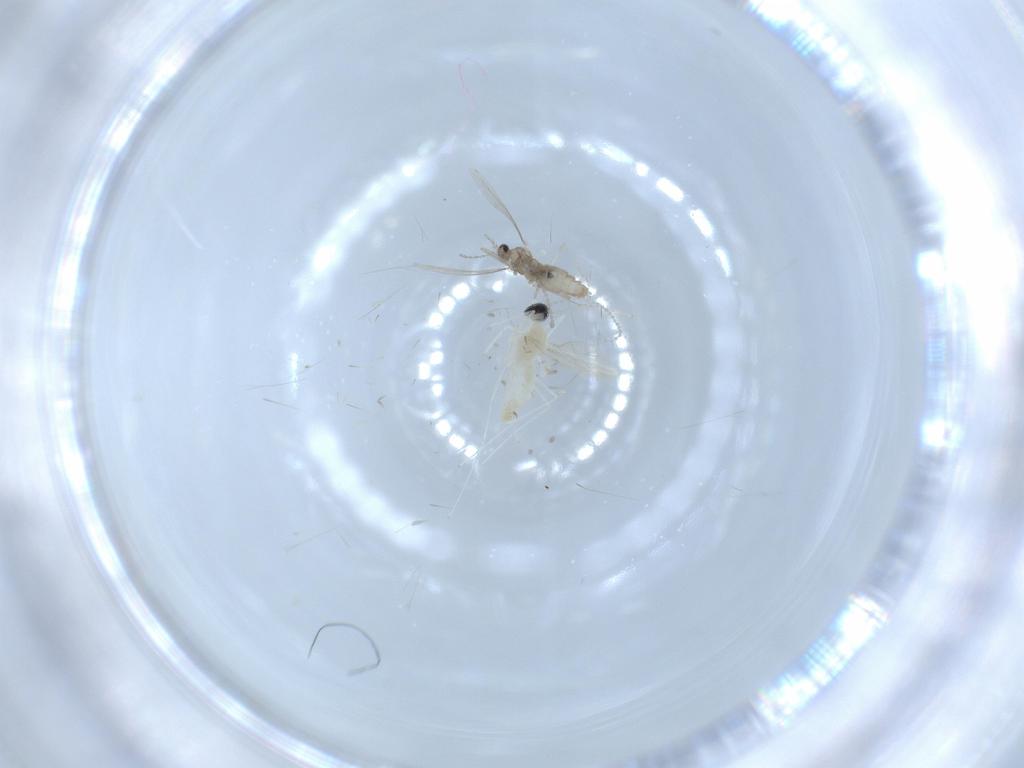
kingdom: Animalia
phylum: Arthropoda
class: Insecta
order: Diptera
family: Cecidomyiidae
